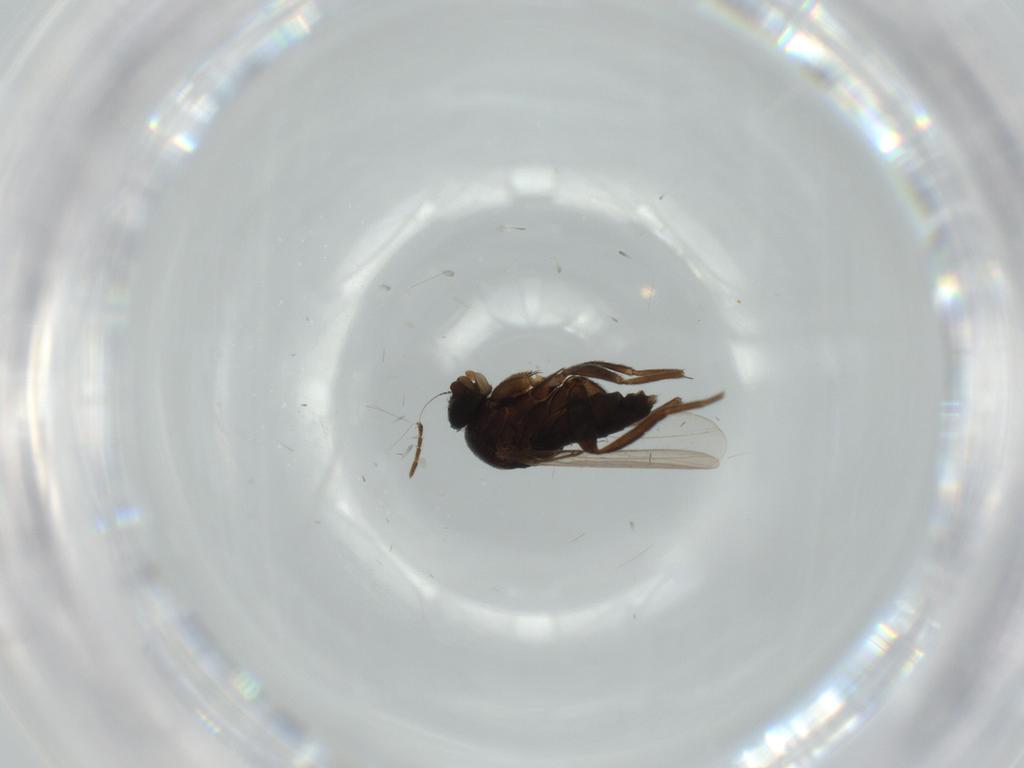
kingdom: Animalia
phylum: Arthropoda
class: Insecta
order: Diptera
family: Phoridae
